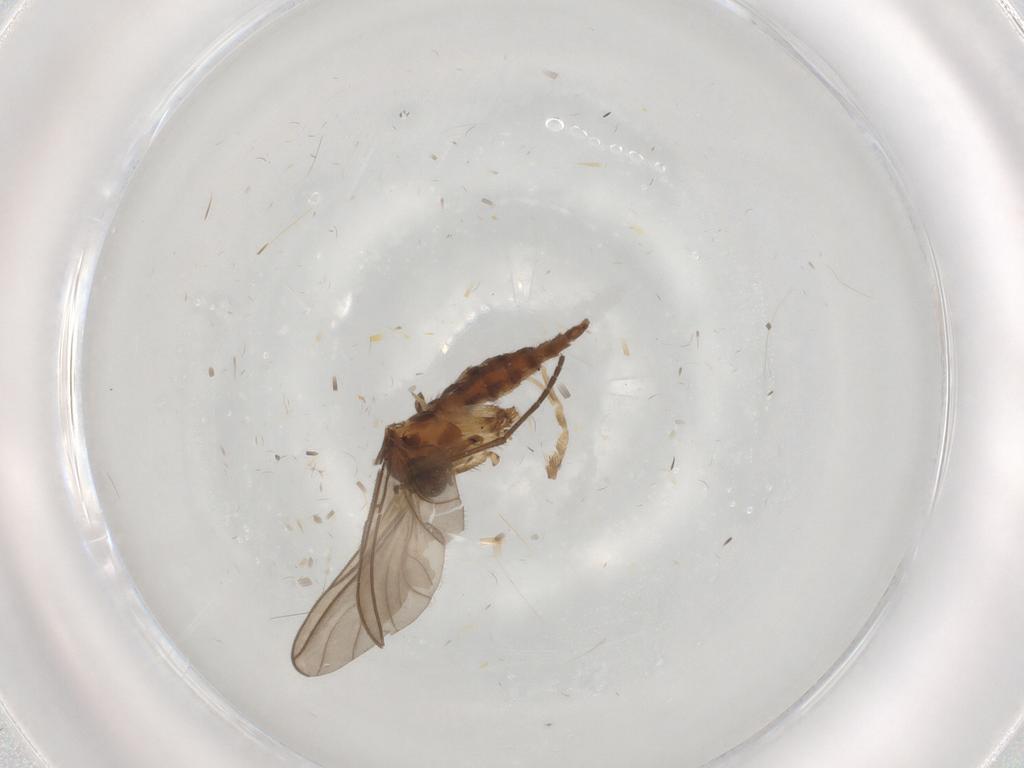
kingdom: Animalia
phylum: Arthropoda
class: Insecta
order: Diptera
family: Sciaridae
